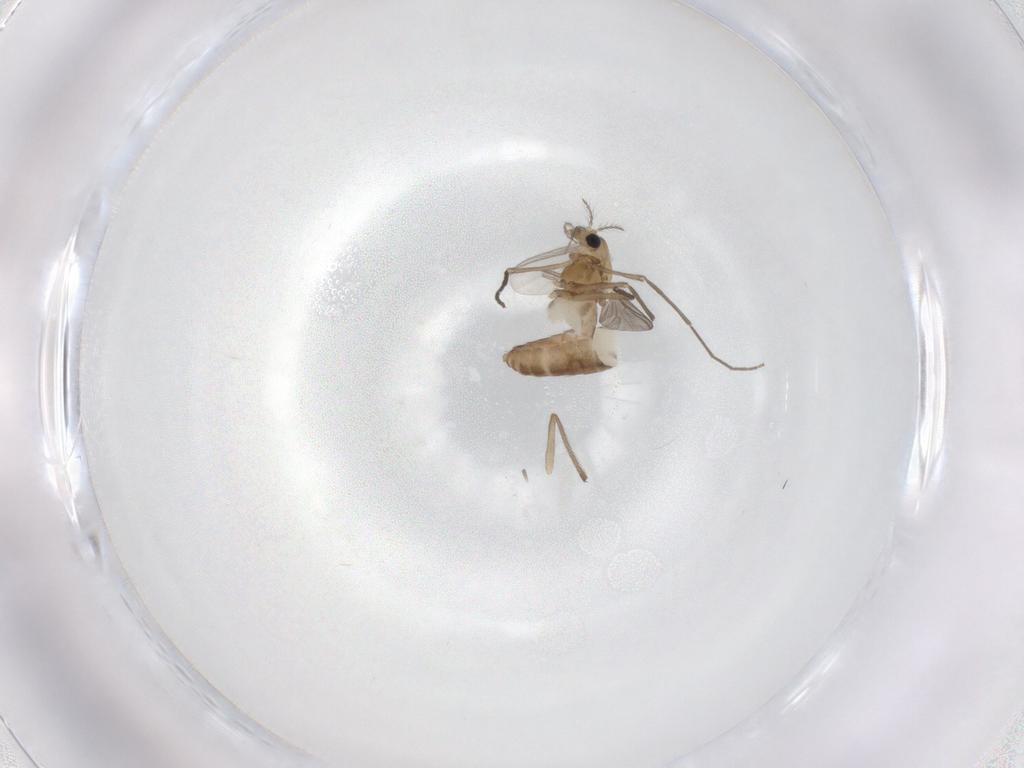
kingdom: Animalia
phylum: Arthropoda
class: Insecta
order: Diptera
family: Chironomidae
